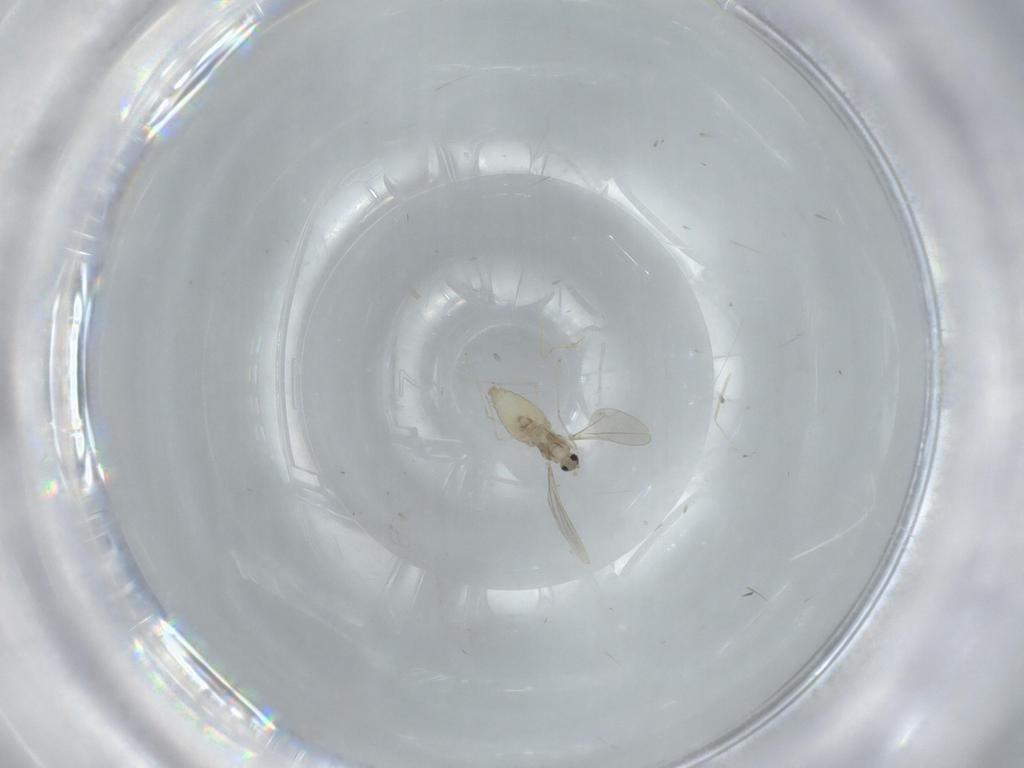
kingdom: Animalia
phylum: Arthropoda
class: Insecta
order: Diptera
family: Cecidomyiidae
